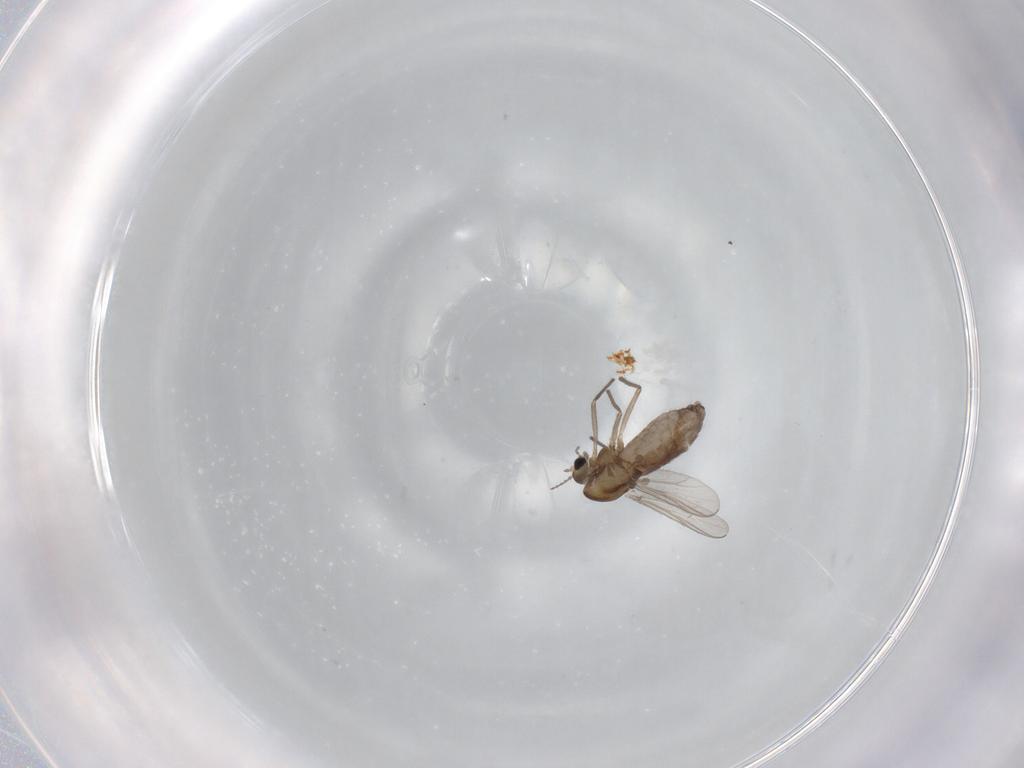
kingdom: Animalia
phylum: Arthropoda
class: Insecta
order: Diptera
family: Chironomidae
